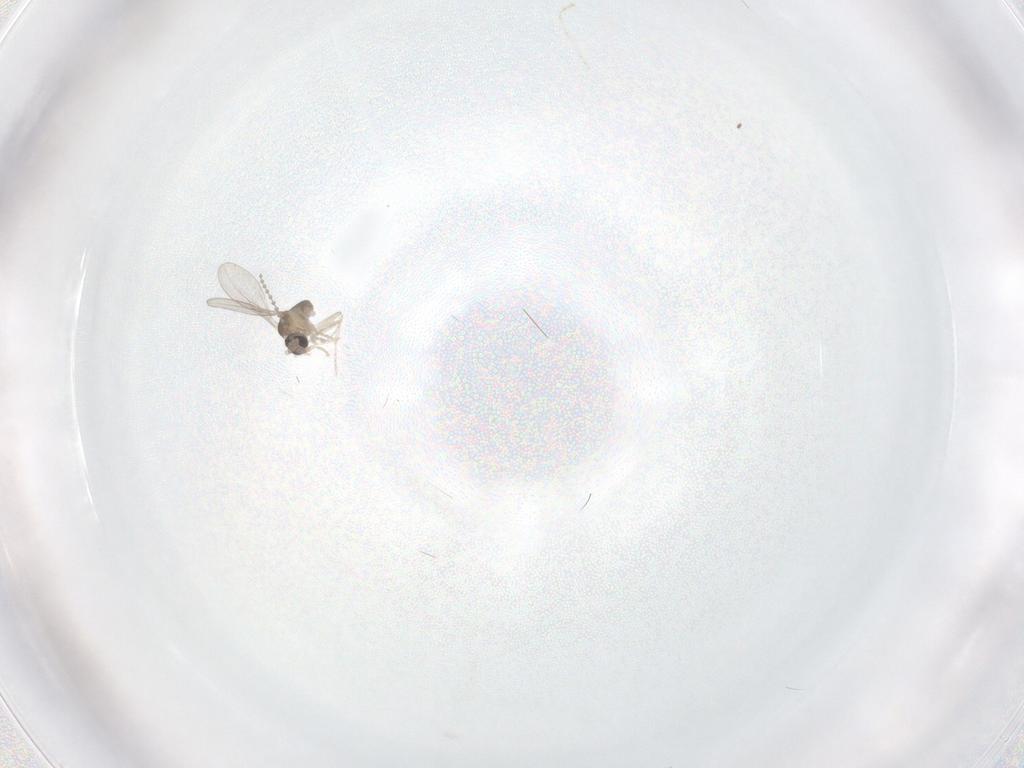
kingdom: Animalia
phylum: Arthropoda
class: Insecta
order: Diptera
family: Cecidomyiidae
